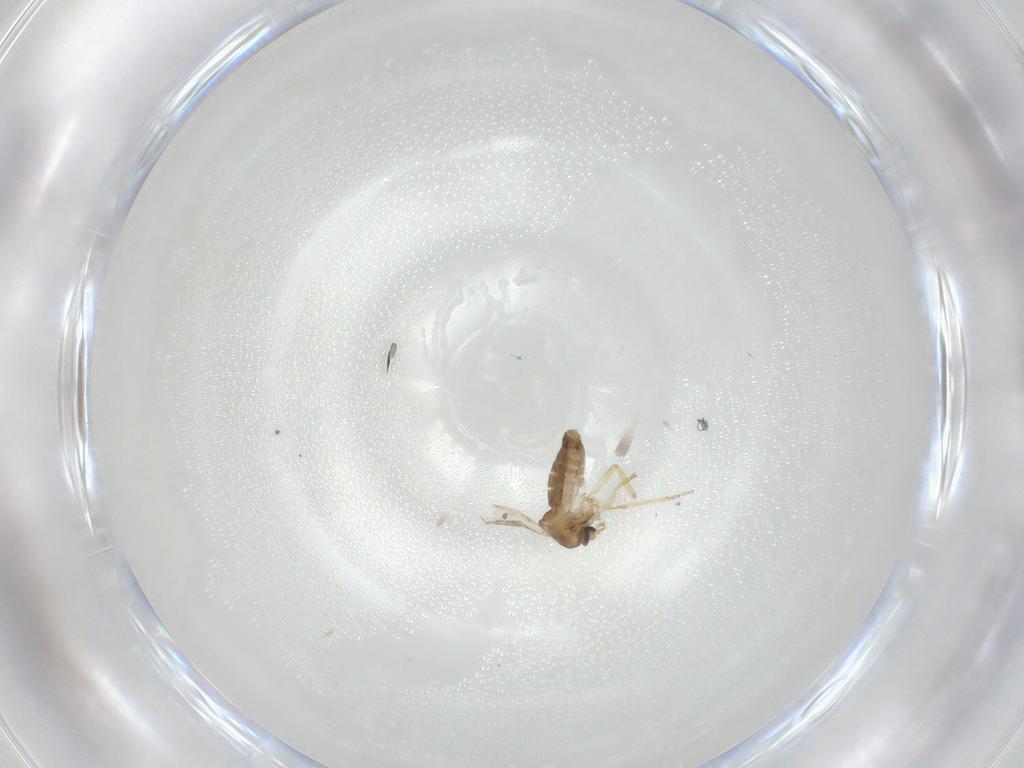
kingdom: Animalia
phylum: Arthropoda
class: Insecta
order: Diptera
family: Ceratopogonidae
